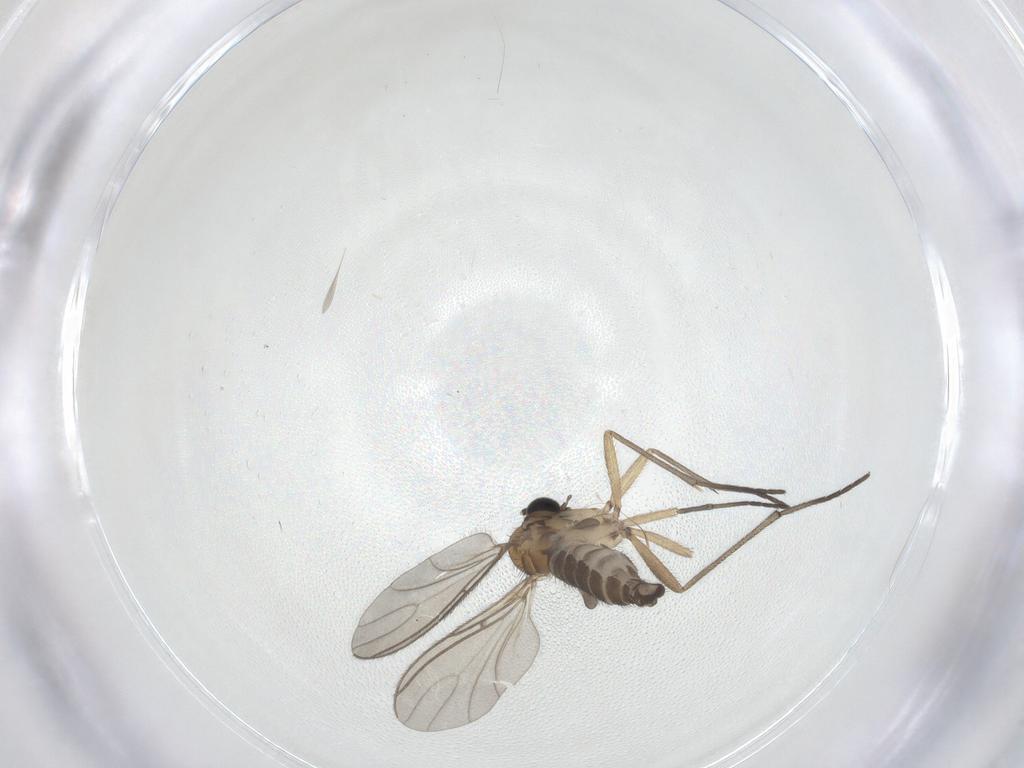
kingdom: Animalia
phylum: Arthropoda
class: Insecta
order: Diptera
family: Sciaridae
